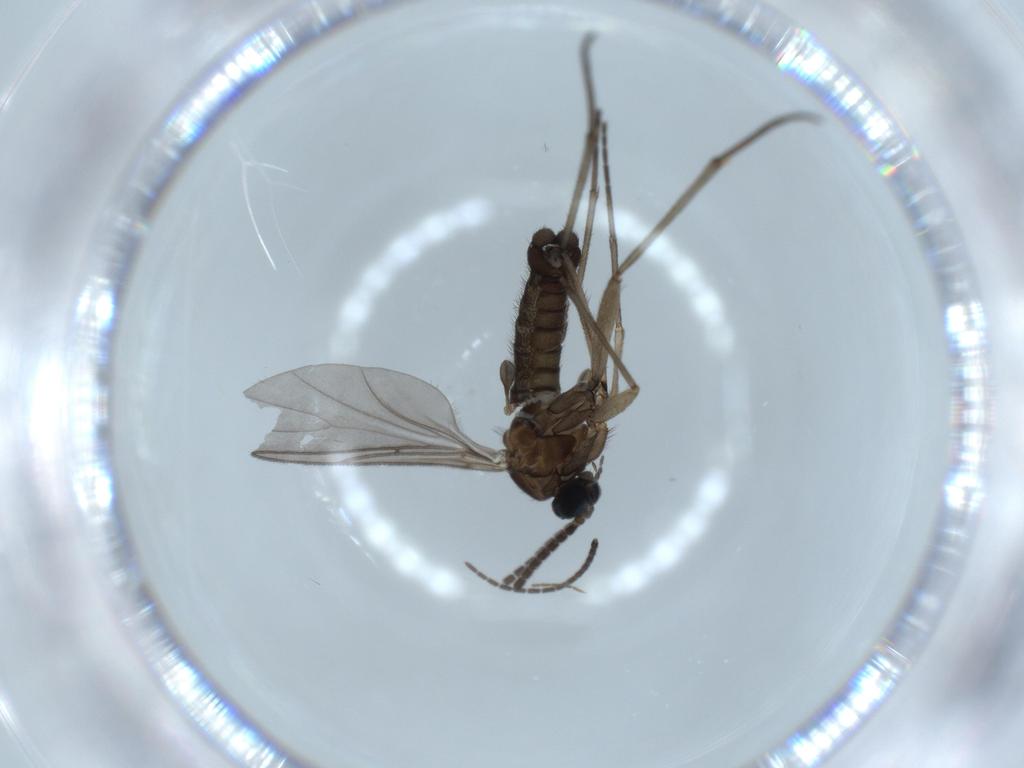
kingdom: Animalia
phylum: Arthropoda
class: Insecta
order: Diptera
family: Sciaridae
